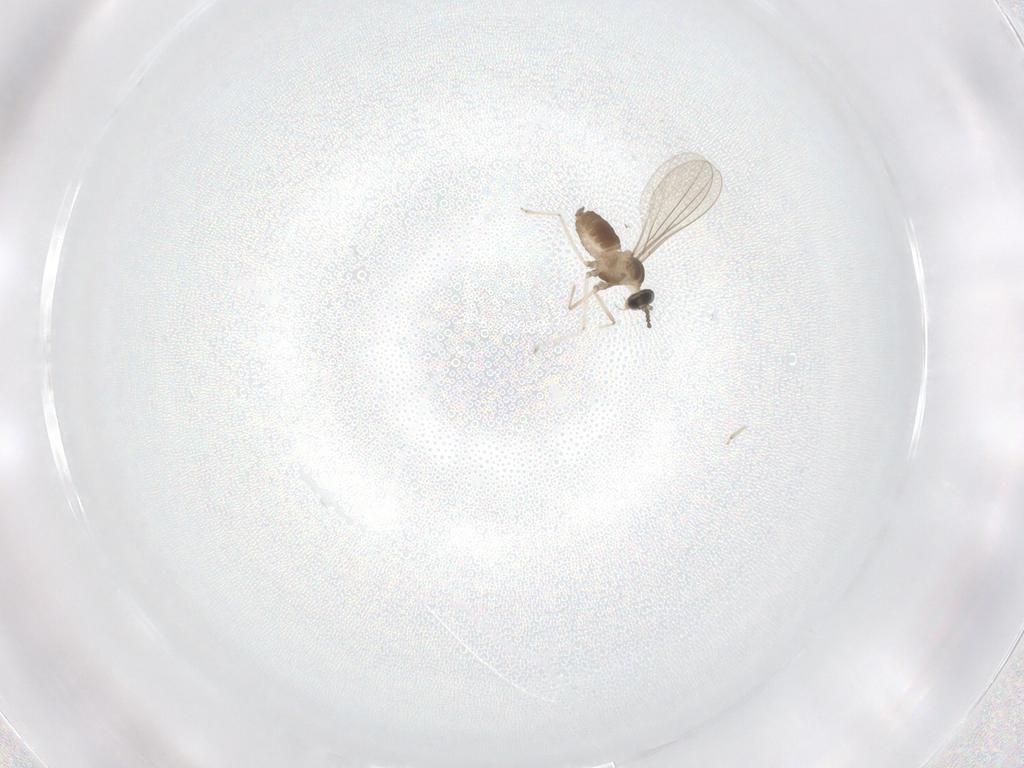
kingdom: Animalia
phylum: Arthropoda
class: Insecta
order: Diptera
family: Cecidomyiidae
